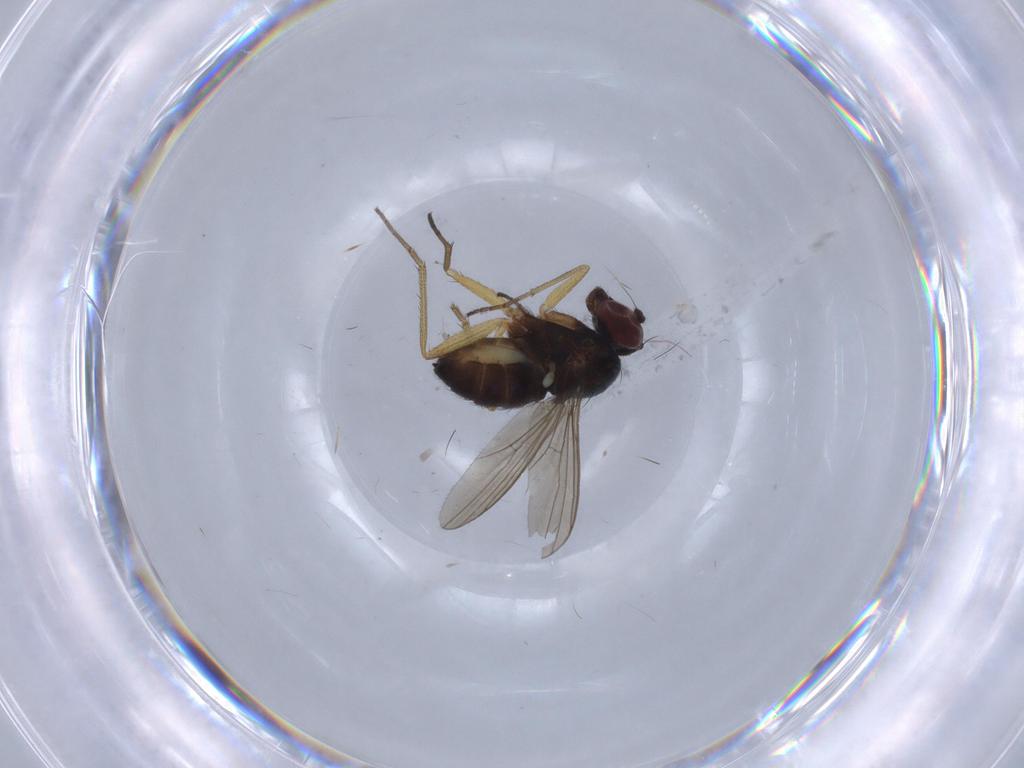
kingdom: Animalia
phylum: Arthropoda
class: Insecta
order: Diptera
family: Dolichopodidae
